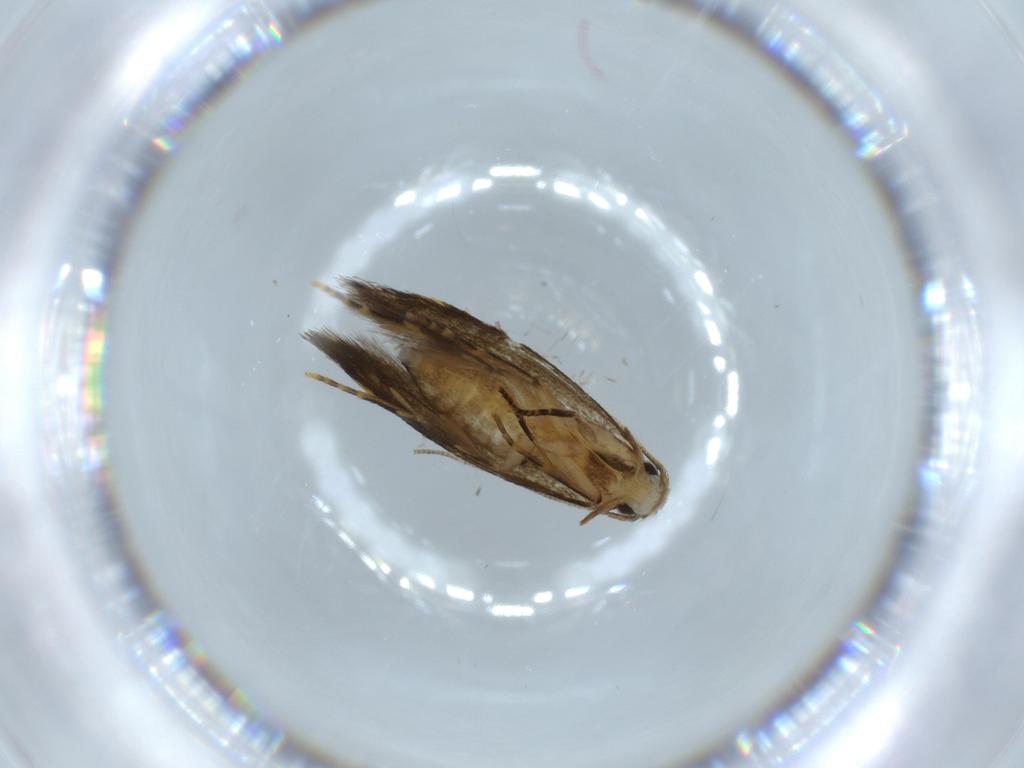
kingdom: Animalia
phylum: Arthropoda
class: Insecta
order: Lepidoptera
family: Tineidae
